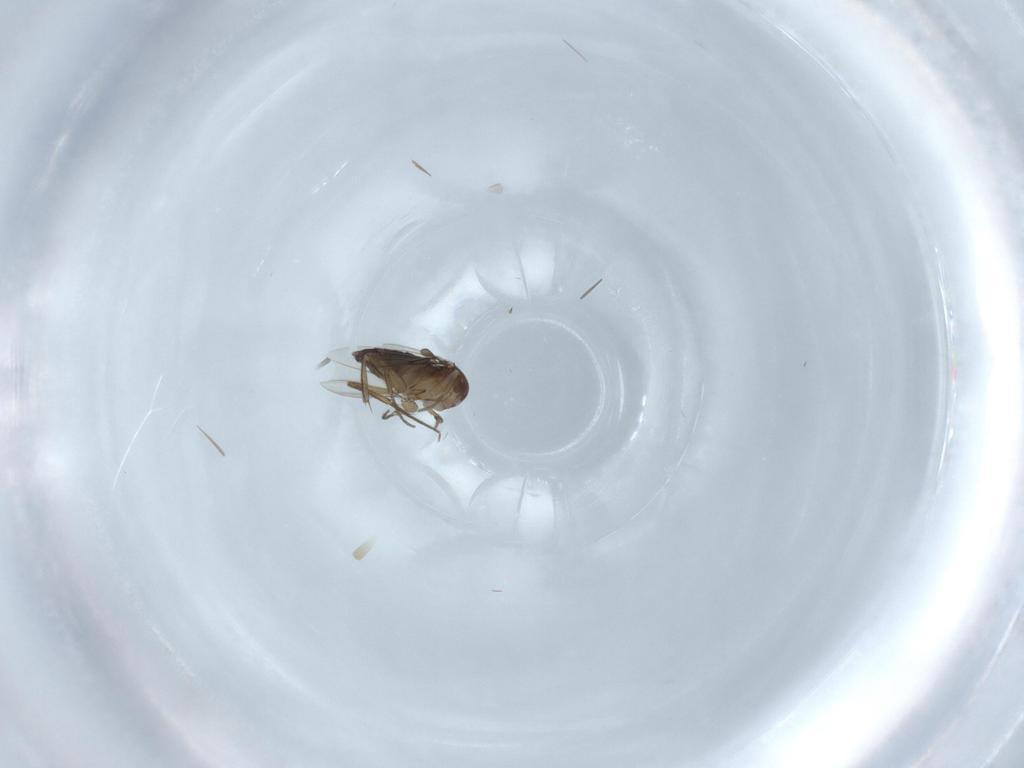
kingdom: Animalia
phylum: Arthropoda
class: Insecta
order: Diptera
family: Phoridae
